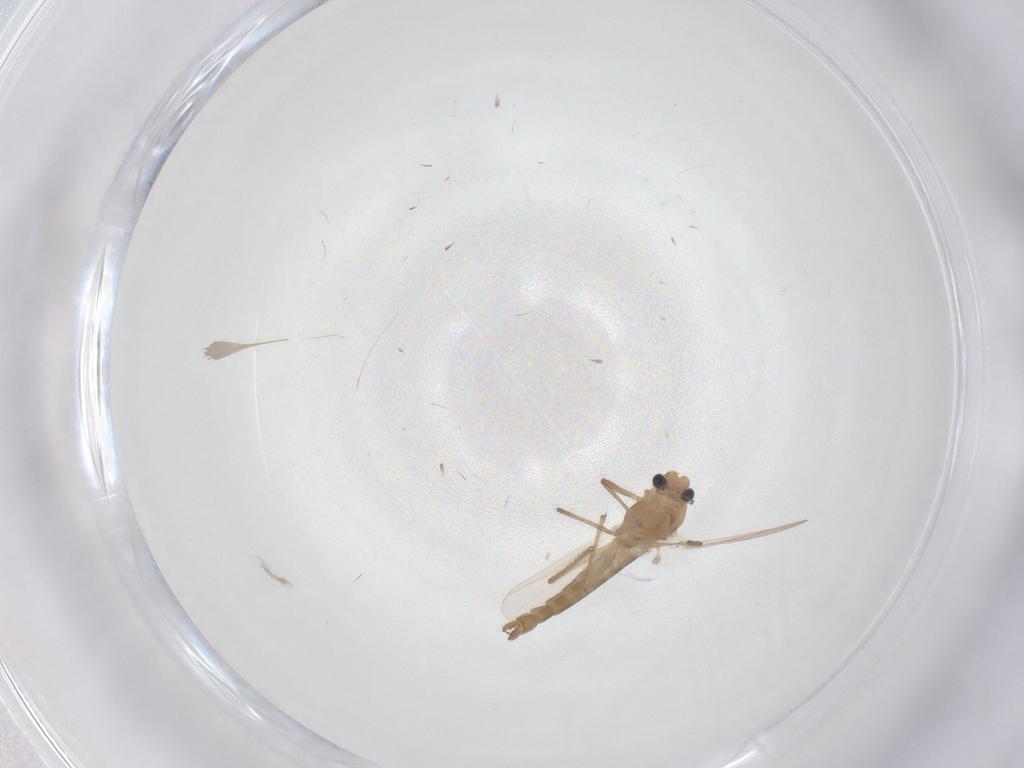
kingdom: Animalia
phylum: Arthropoda
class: Insecta
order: Diptera
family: Chironomidae
